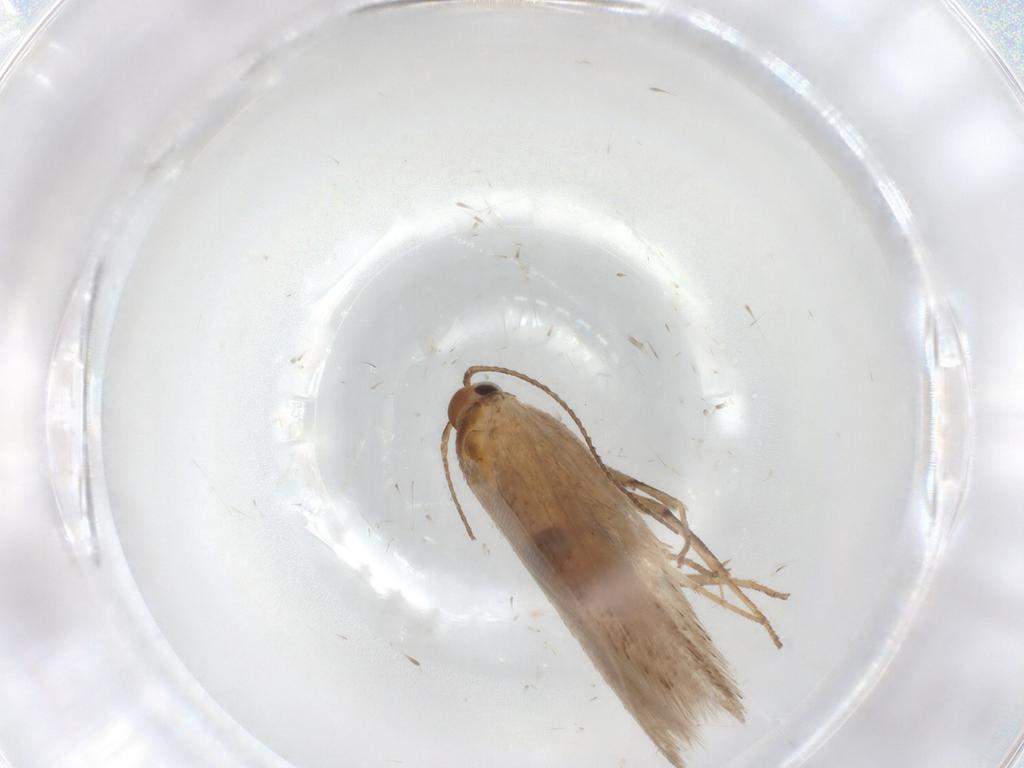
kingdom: Animalia
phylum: Arthropoda
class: Insecta
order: Lepidoptera
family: Gelechiidae
